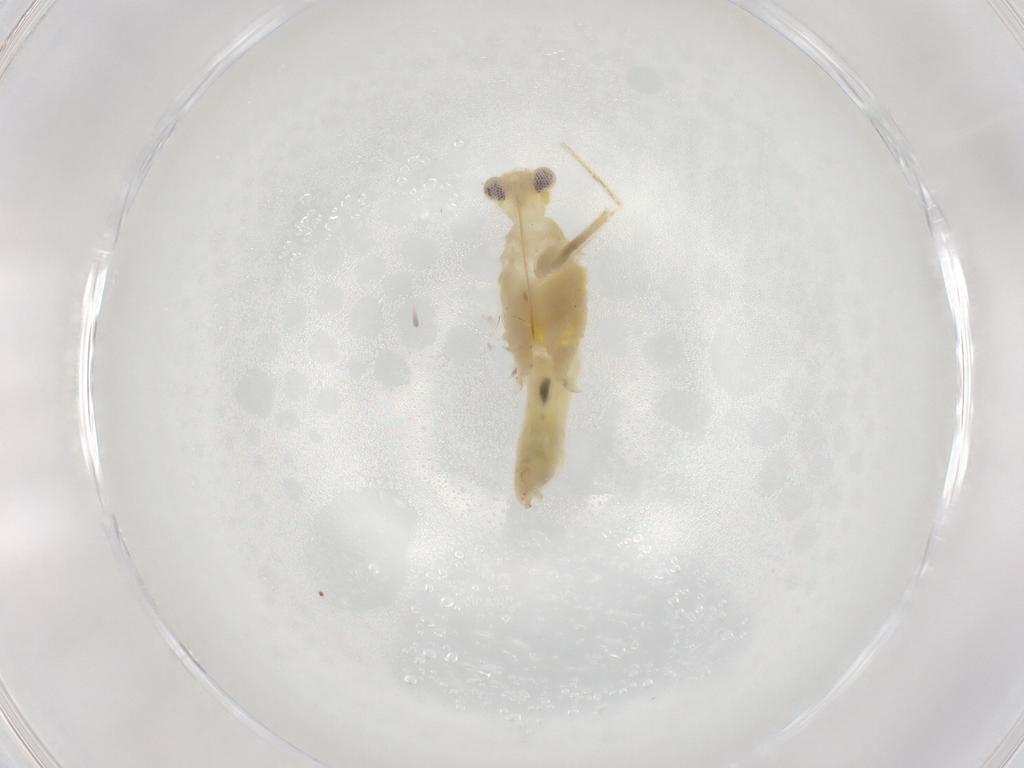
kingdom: Animalia
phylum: Arthropoda
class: Insecta
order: Hemiptera
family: Miridae
